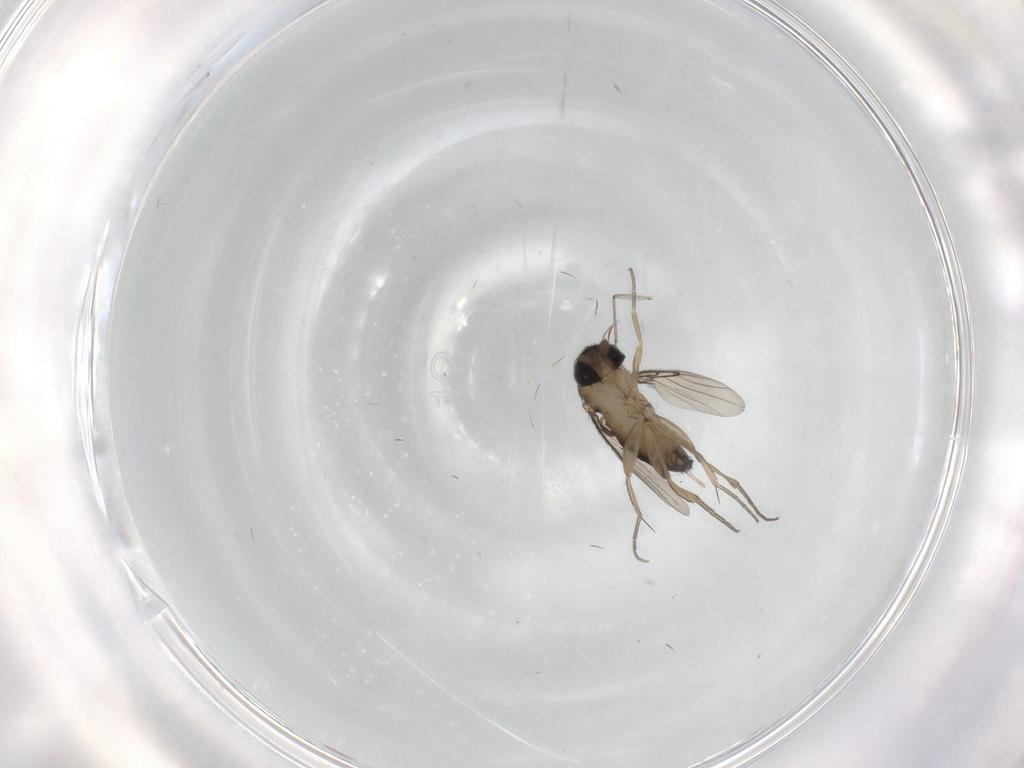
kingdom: Animalia
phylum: Arthropoda
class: Insecta
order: Diptera
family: Phoridae
